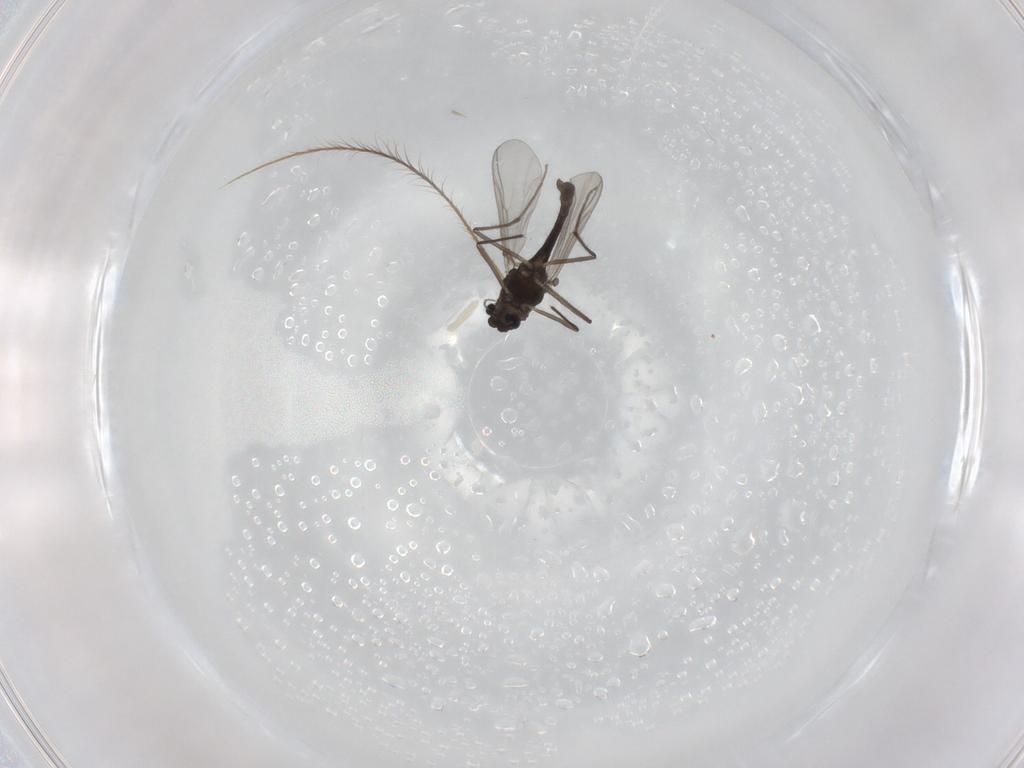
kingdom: Animalia
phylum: Arthropoda
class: Insecta
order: Diptera
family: Chironomidae
